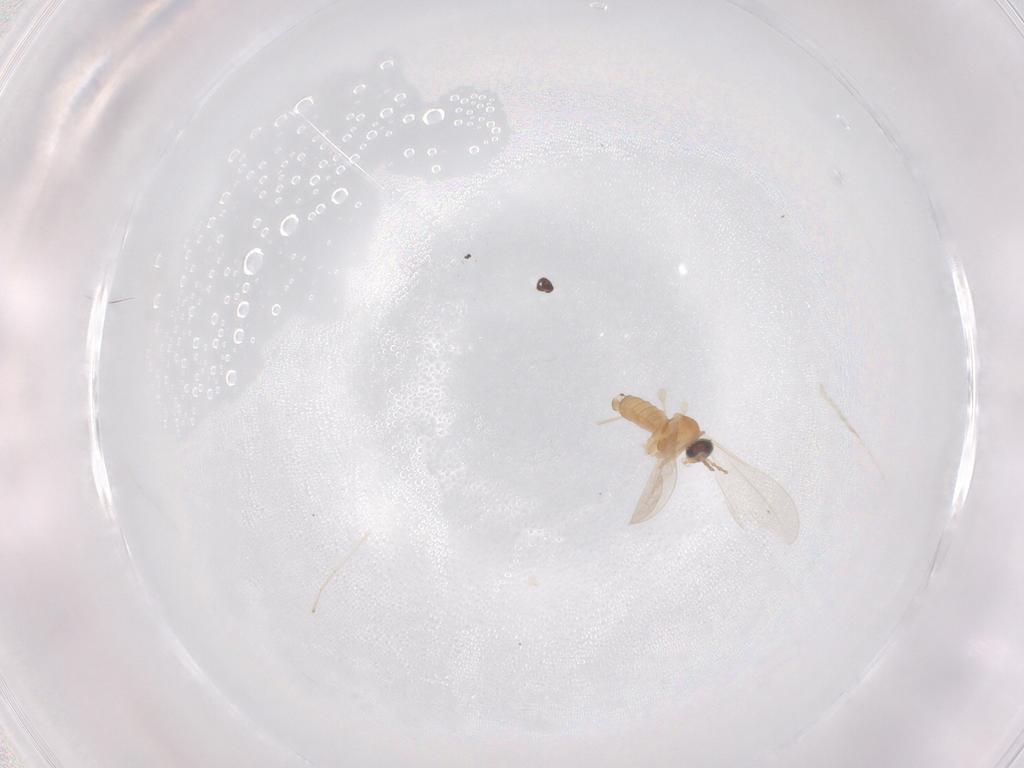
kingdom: Animalia
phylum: Arthropoda
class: Insecta
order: Diptera
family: Cecidomyiidae
